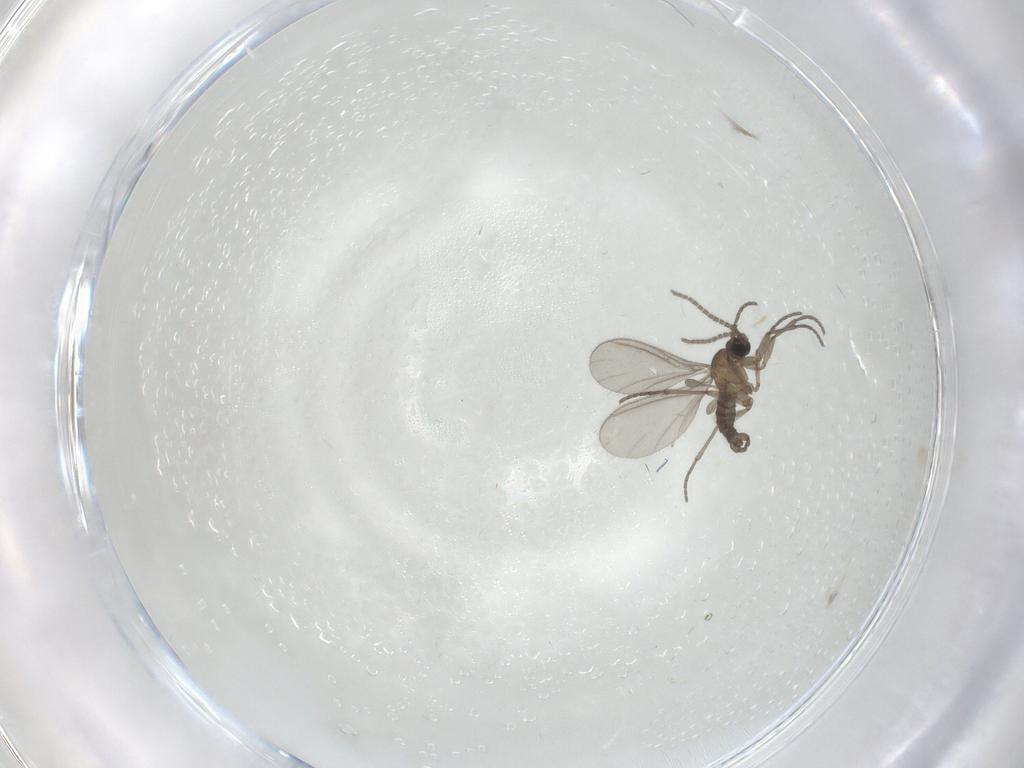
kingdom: Animalia
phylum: Arthropoda
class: Insecta
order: Diptera
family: Sciaridae
